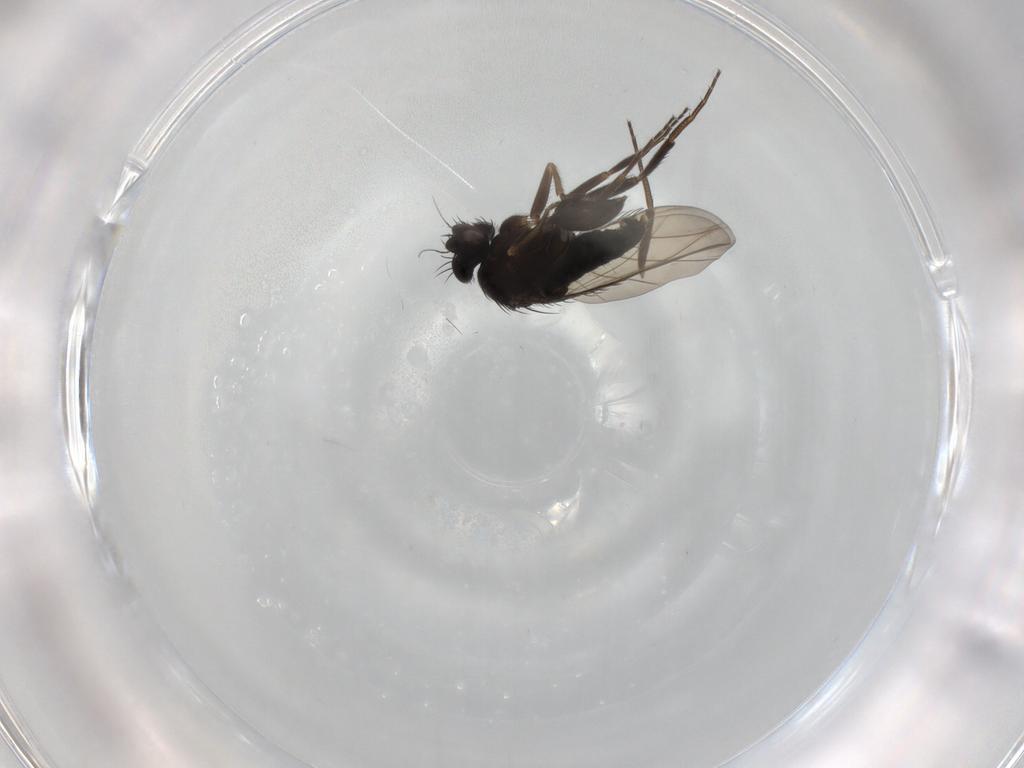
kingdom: Animalia
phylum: Arthropoda
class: Insecta
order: Diptera
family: Phoridae
